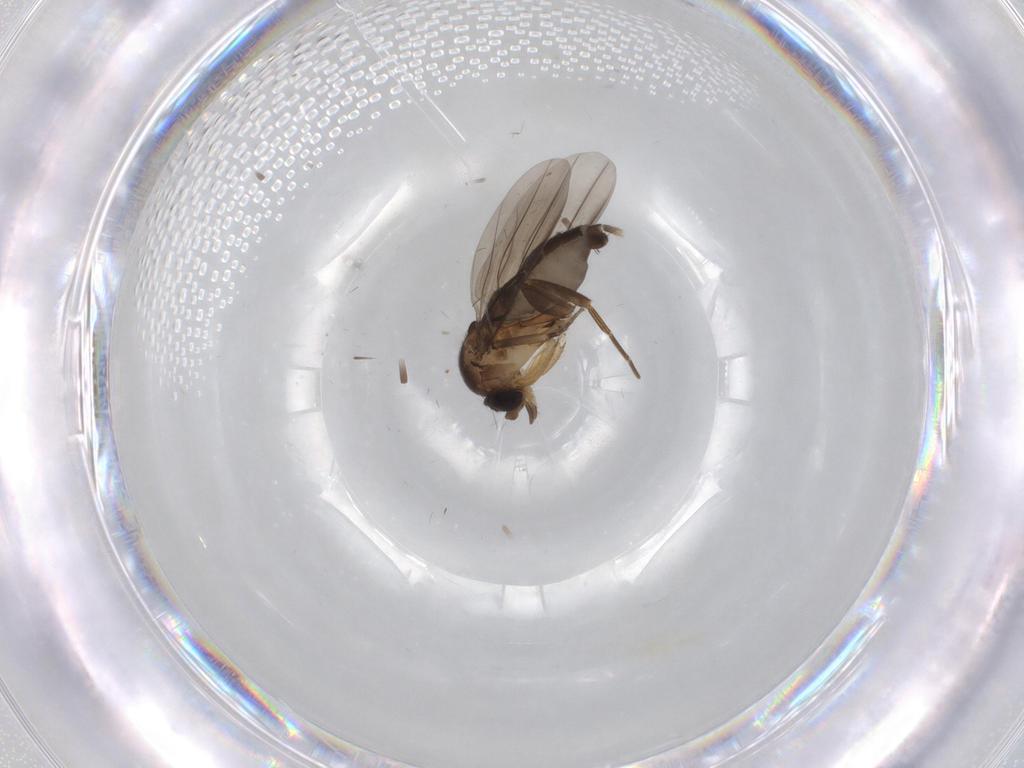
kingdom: Animalia
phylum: Arthropoda
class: Insecta
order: Diptera
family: Phoridae
